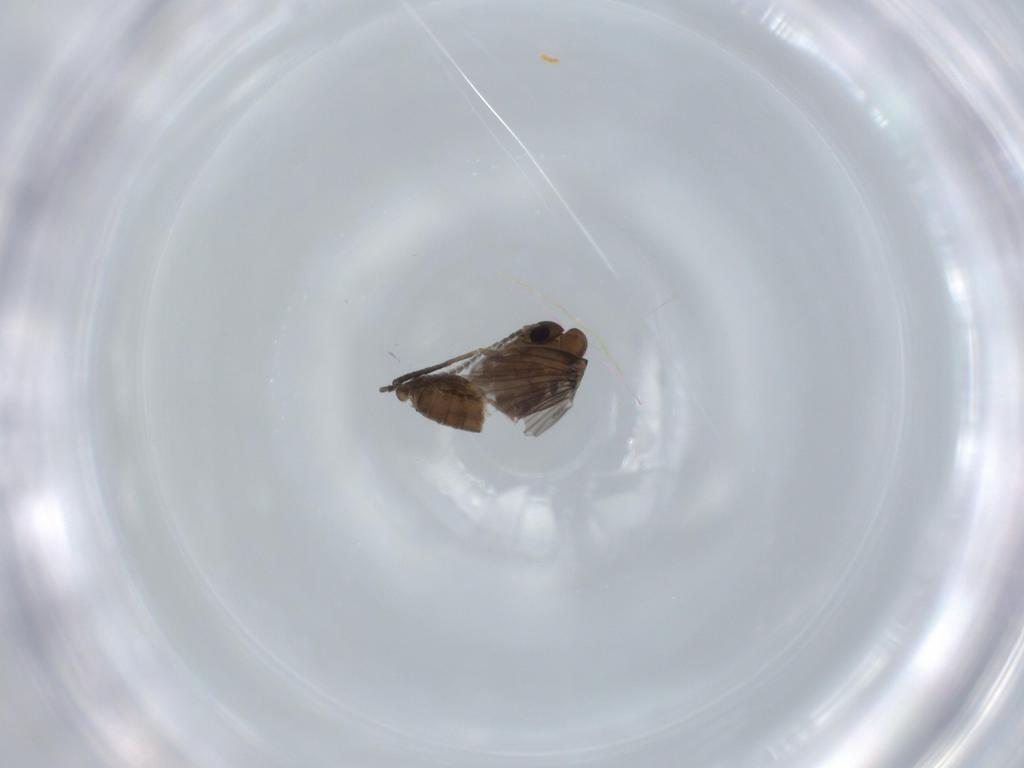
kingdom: Animalia
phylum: Arthropoda
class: Insecta
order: Diptera
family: Psychodidae
